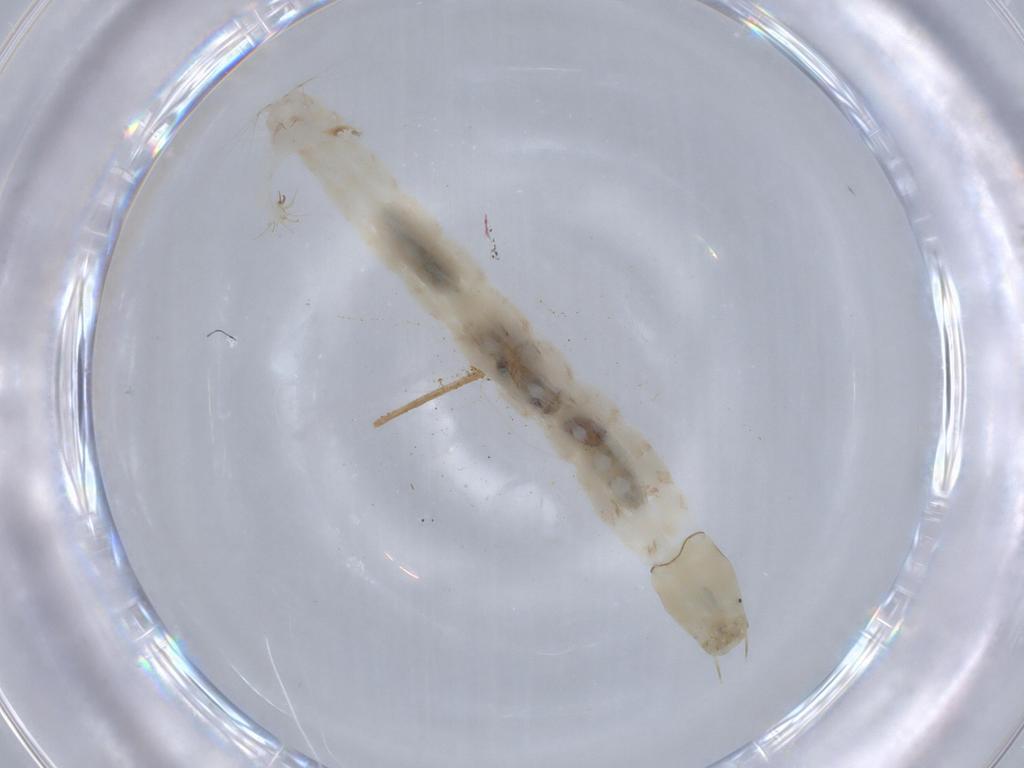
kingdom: Animalia
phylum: Arthropoda
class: Insecta
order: Diptera
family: Chironomidae
